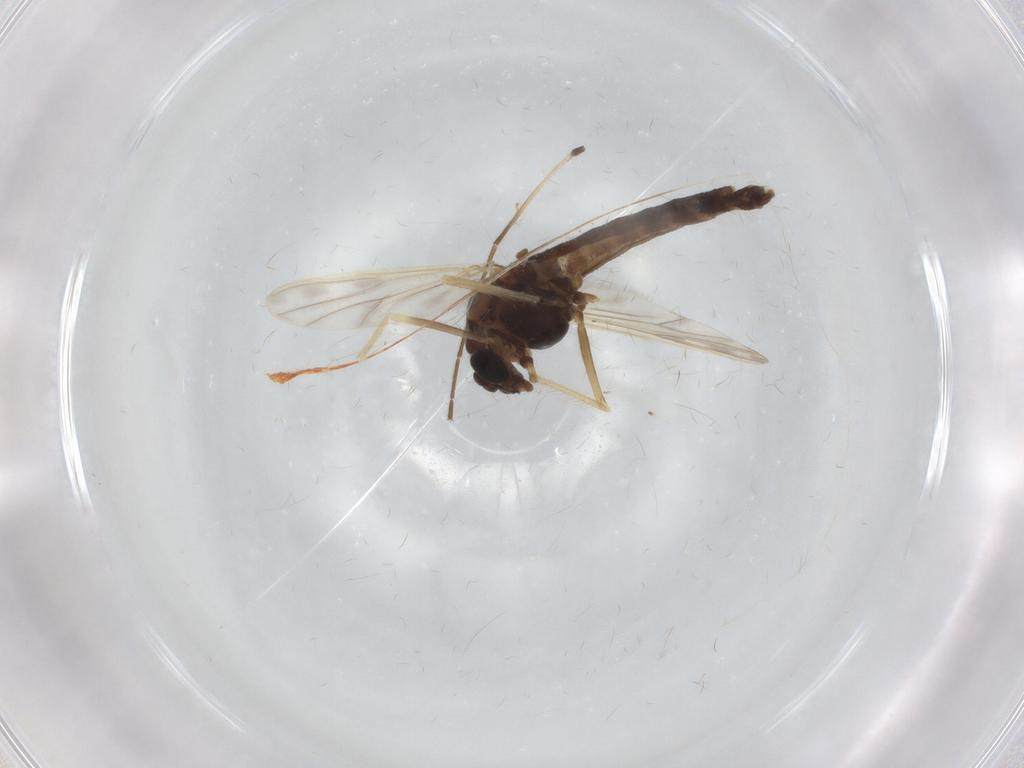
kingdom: Animalia
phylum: Arthropoda
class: Insecta
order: Diptera
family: Chironomidae
